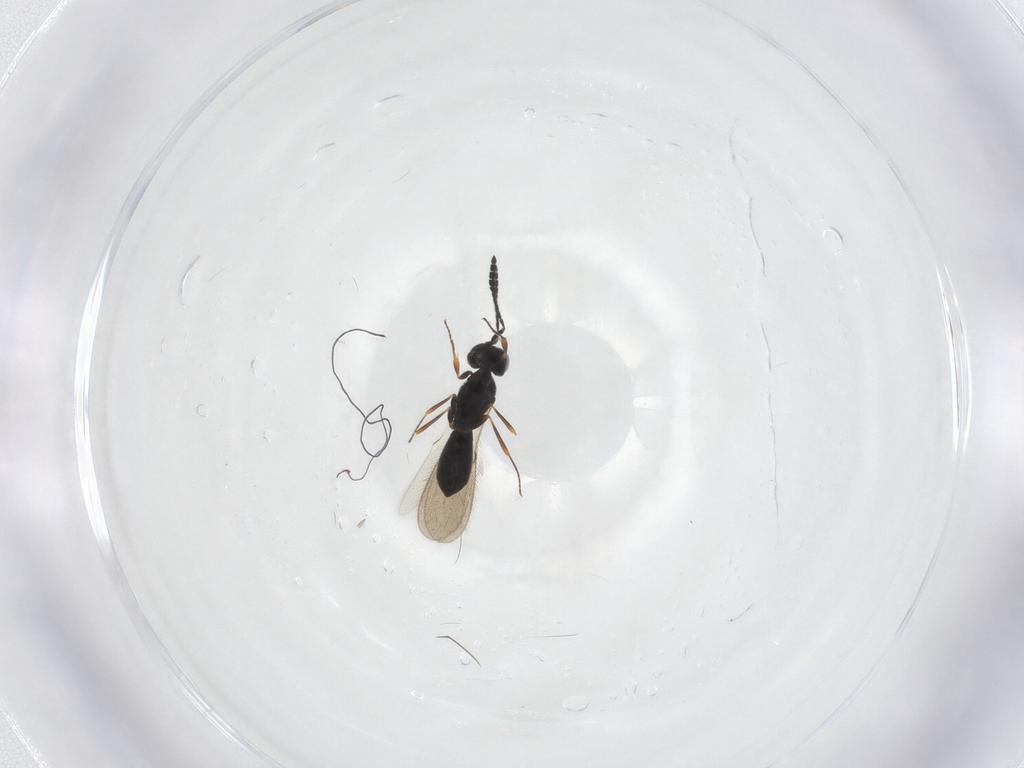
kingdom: Animalia
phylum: Arthropoda
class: Insecta
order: Hymenoptera
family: Scelionidae
